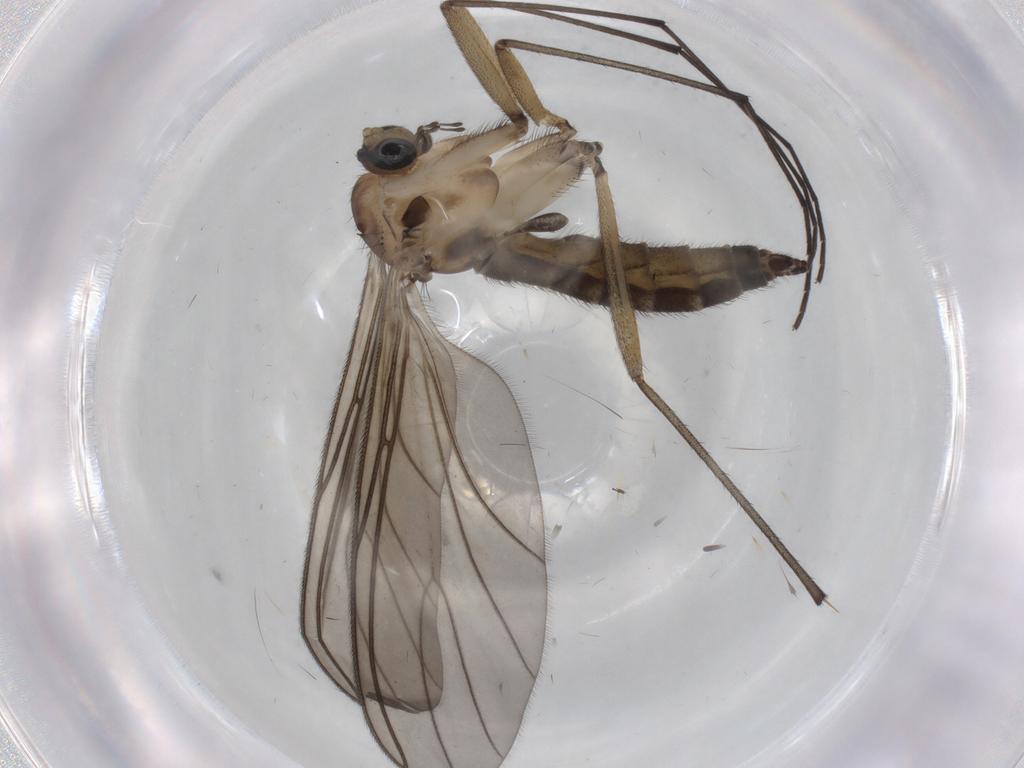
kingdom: Animalia
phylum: Arthropoda
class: Insecta
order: Diptera
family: Sciaridae
